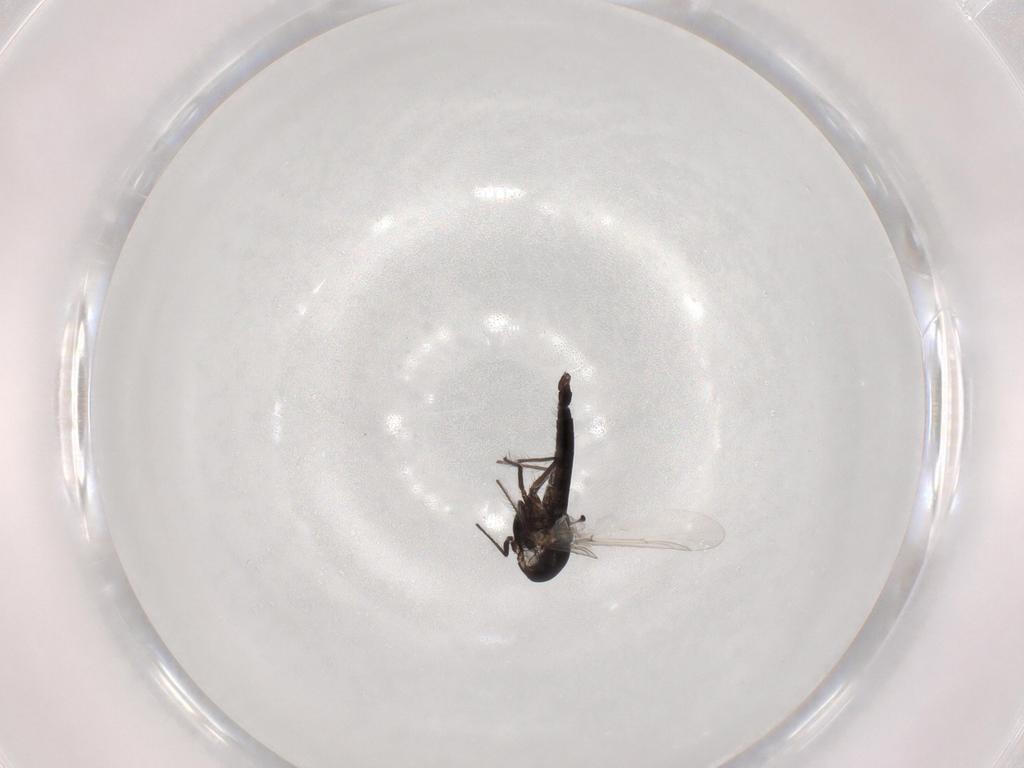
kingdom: Animalia
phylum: Arthropoda
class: Insecta
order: Diptera
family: Chironomidae
